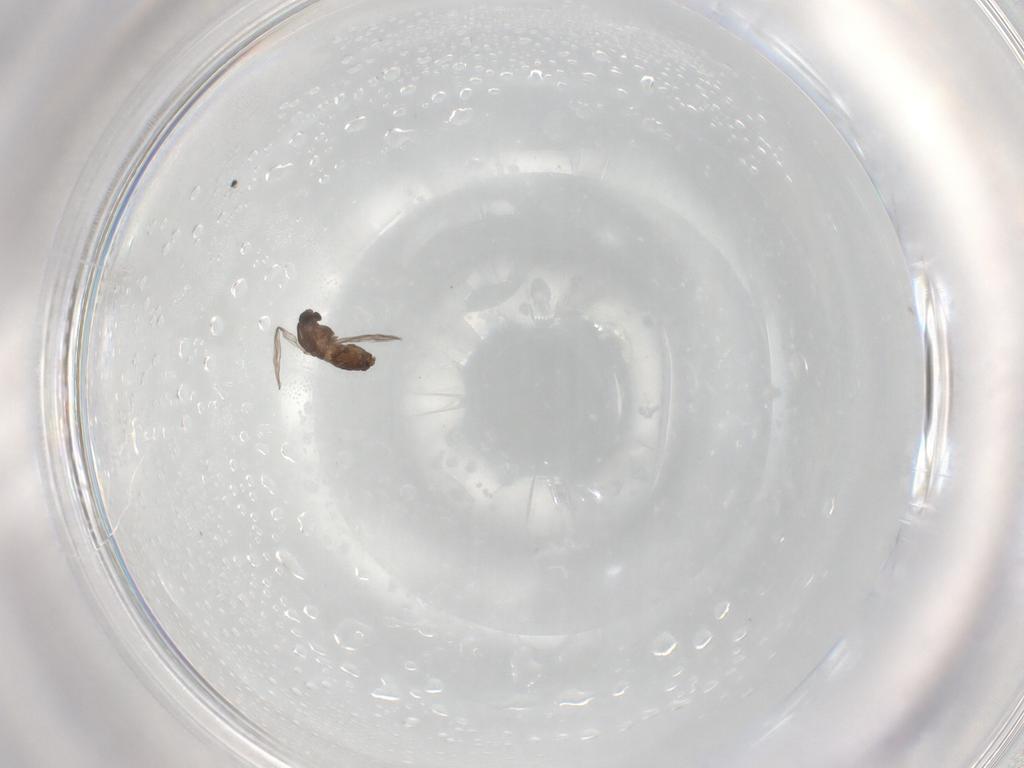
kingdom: Animalia
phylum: Arthropoda
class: Insecta
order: Diptera
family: Chironomidae
